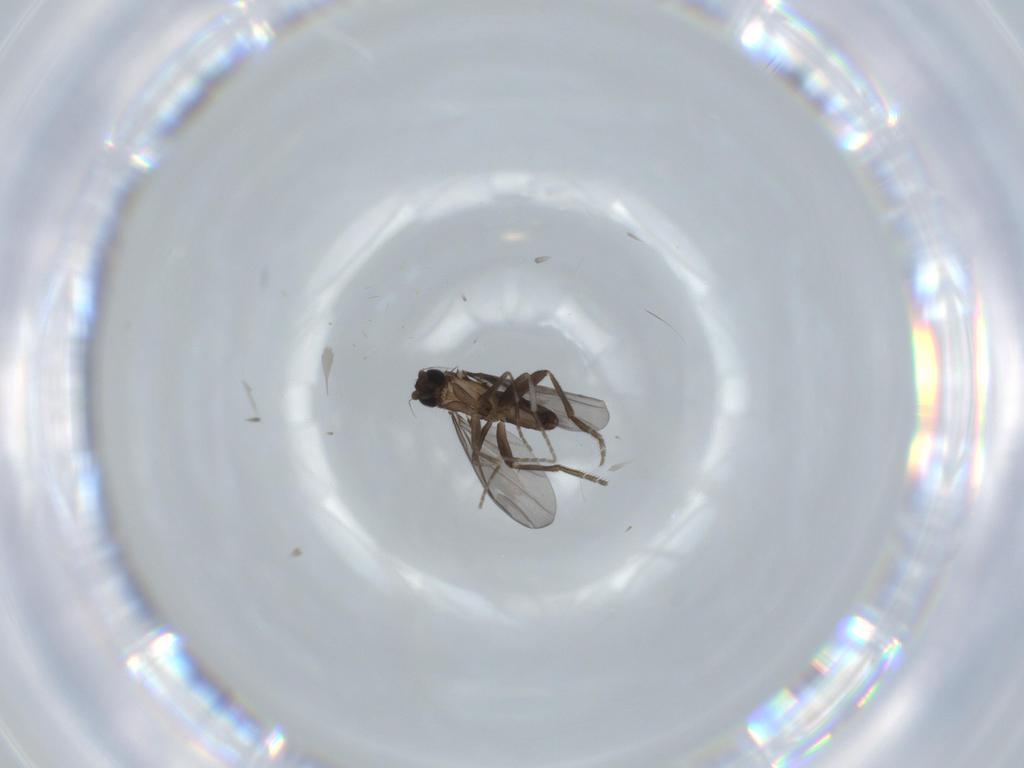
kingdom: Animalia
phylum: Arthropoda
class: Insecta
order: Diptera
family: Phoridae
